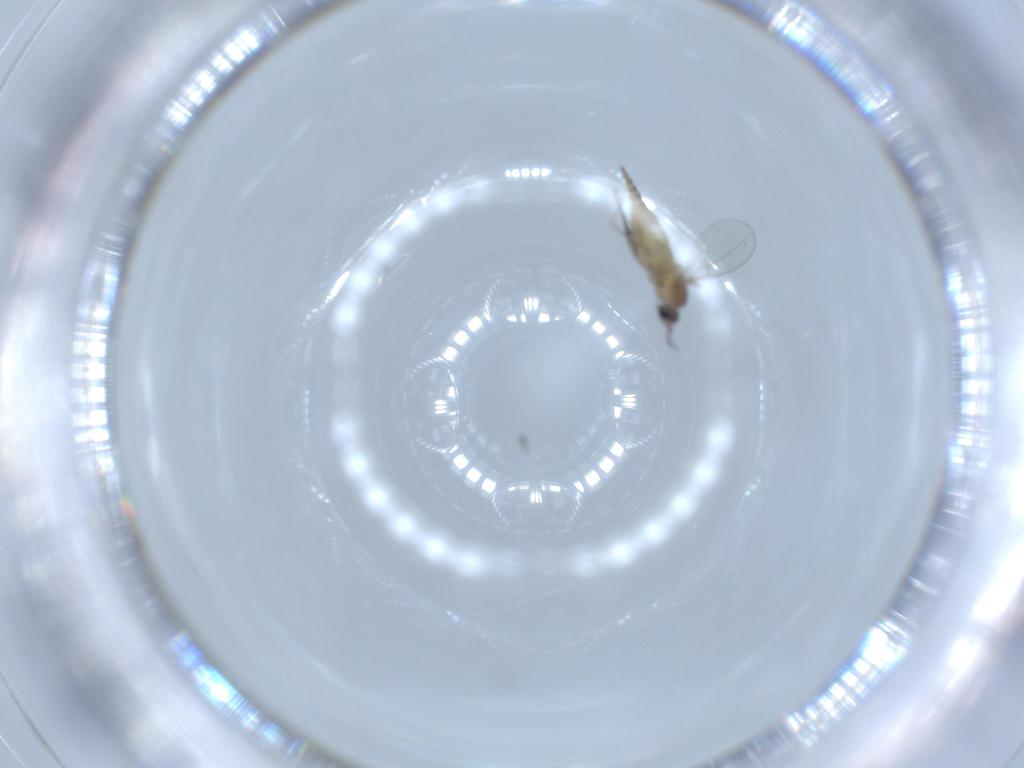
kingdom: Animalia
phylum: Arthropoda
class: Insecta
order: Diptera
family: Cecidomyiidae
